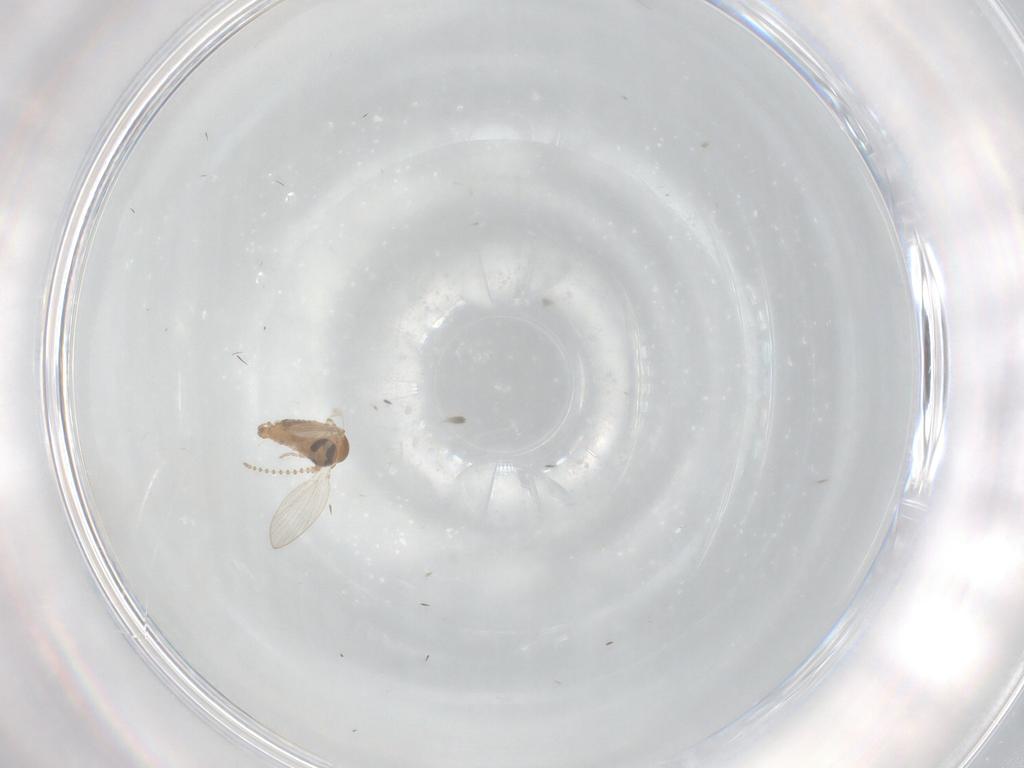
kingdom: Animalia
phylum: Arthropoda
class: Insecta
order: Diptera
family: Psychodidae
